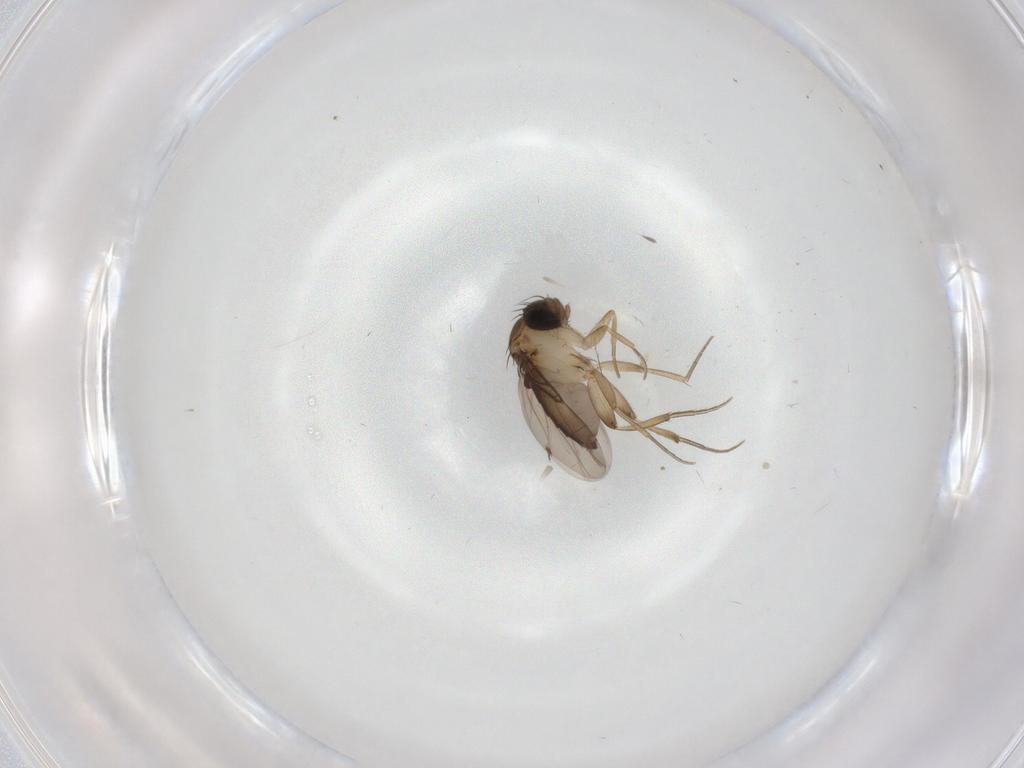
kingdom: Animalia
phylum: Arthropoda
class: Insecta
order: Diptera
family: Phoridae
